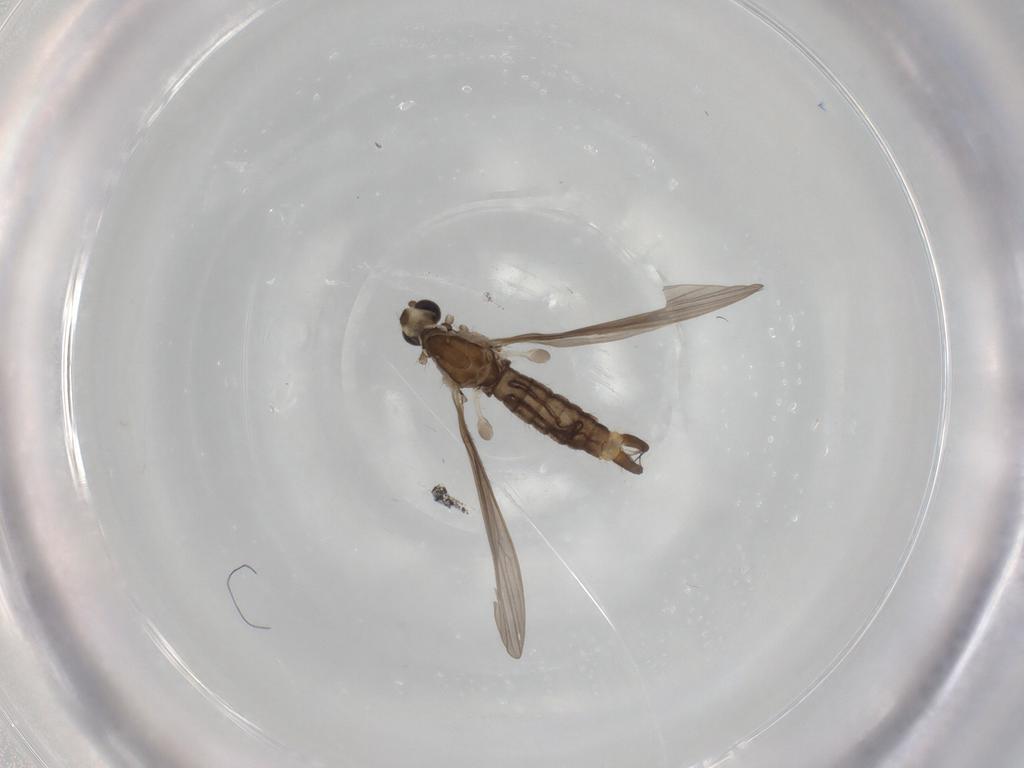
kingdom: Animalia
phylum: Arthropoda
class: Insecta
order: Diptera
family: Limoniidae
